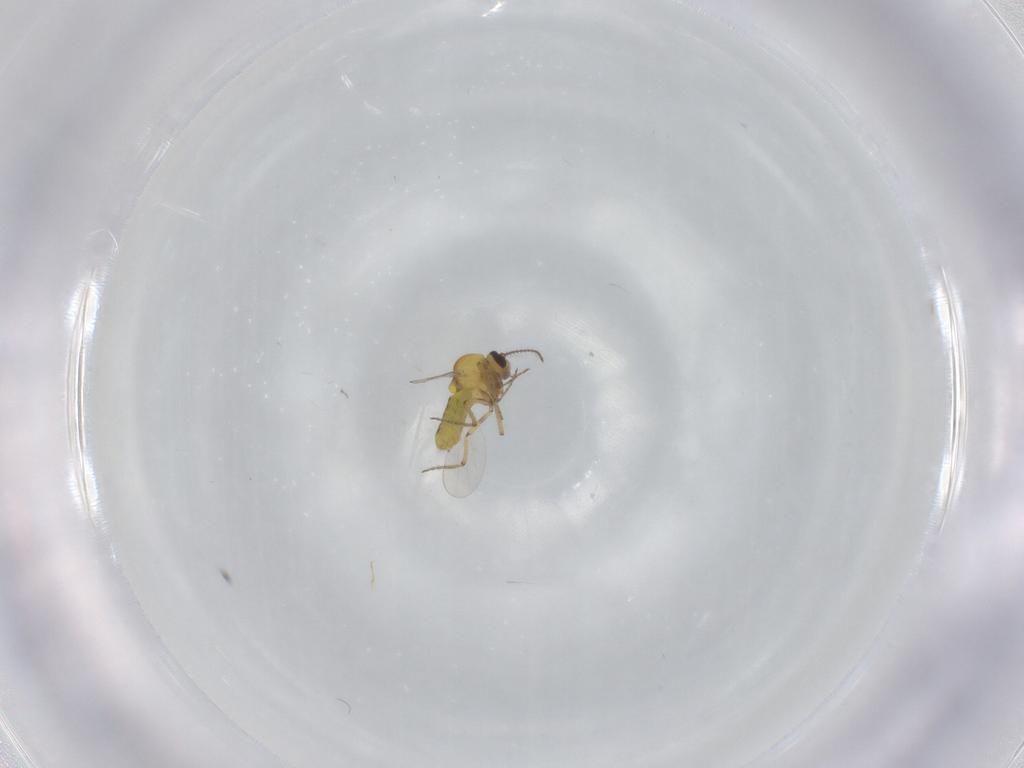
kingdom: Animalia
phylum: Arthropoda
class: Insecta
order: Diptera
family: Ceratopogonidae
